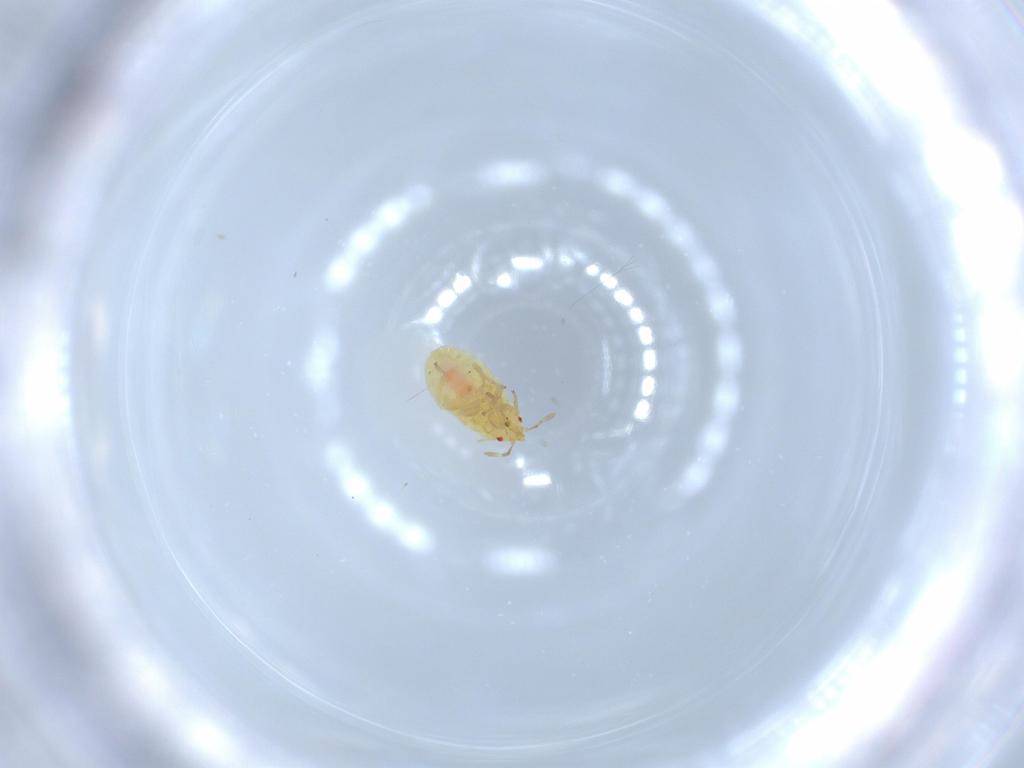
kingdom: Animalia
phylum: Arthropoda
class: Insecta
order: Hemiptera
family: Anthocoridae
